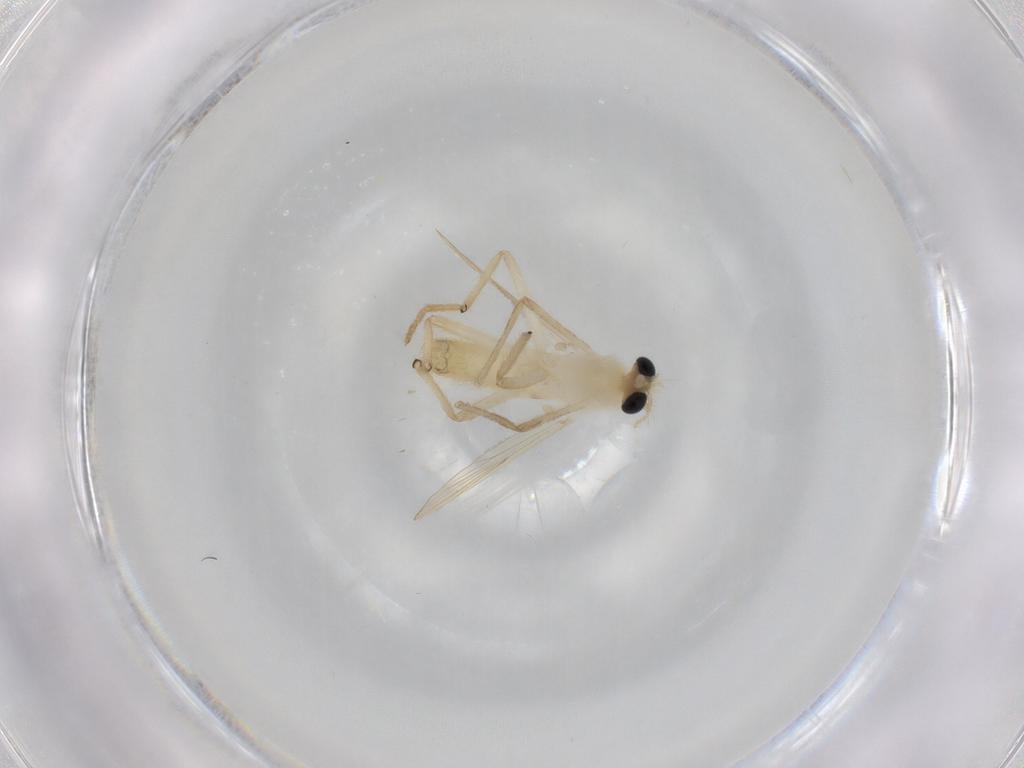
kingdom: Animalia
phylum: Arthropoda
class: Insecta
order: Diptera
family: Chironomidae
